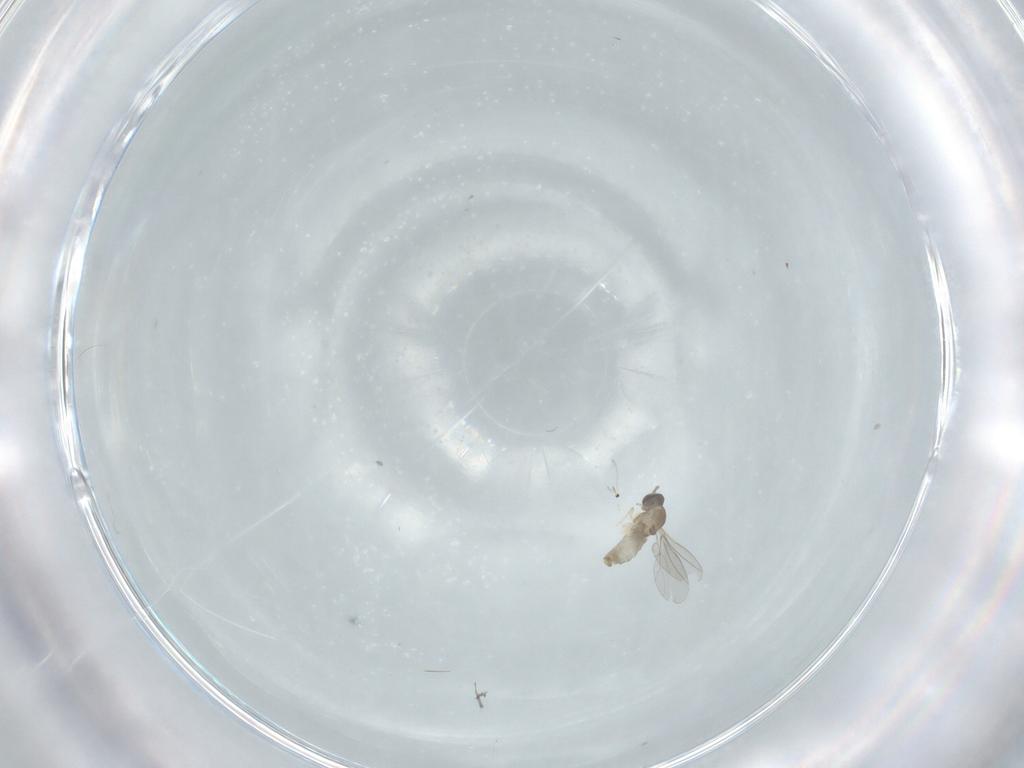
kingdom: Animalia
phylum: Arthropoda
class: Insecta
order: Diptera
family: Cecidomyiidae
